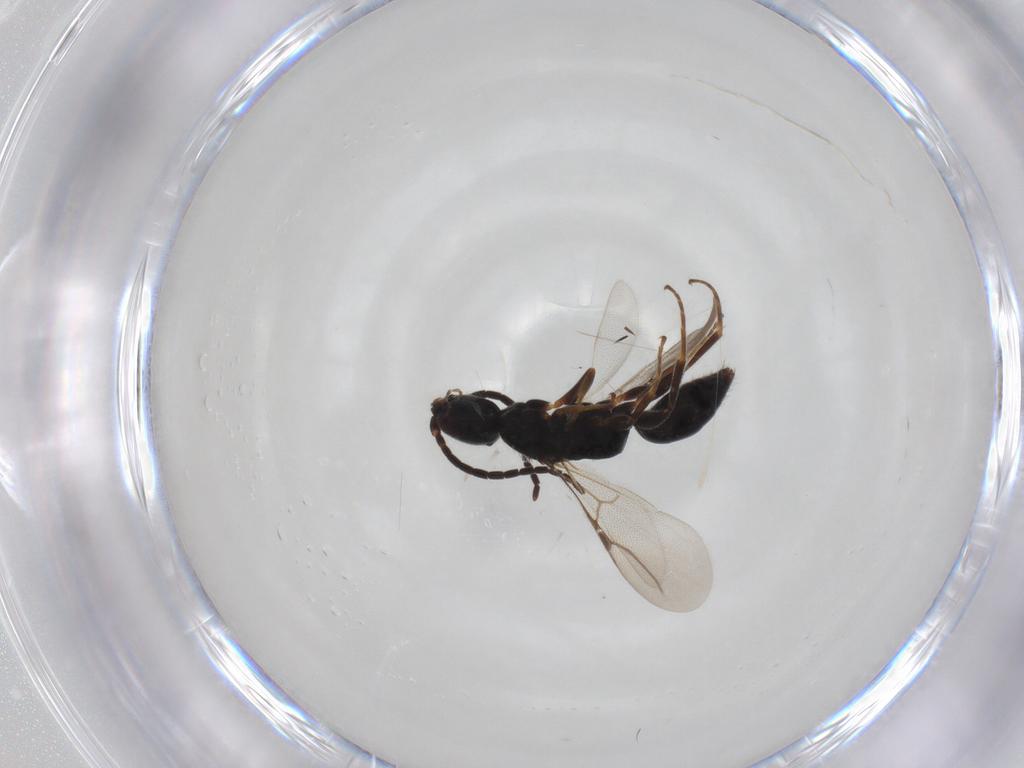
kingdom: Animalia
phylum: Arthropoda
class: Insecta
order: Hymenoptera
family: Bethylidae
